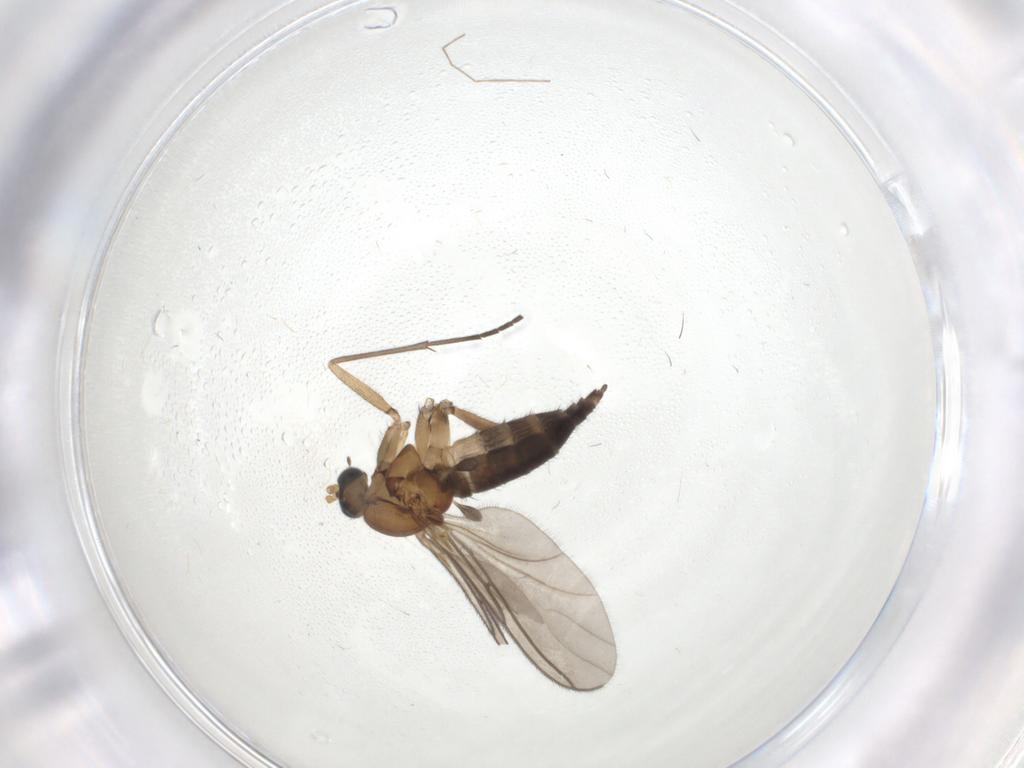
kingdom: Animalia
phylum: Arthropoda
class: Insecta
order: Diptera
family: Sciaridae
